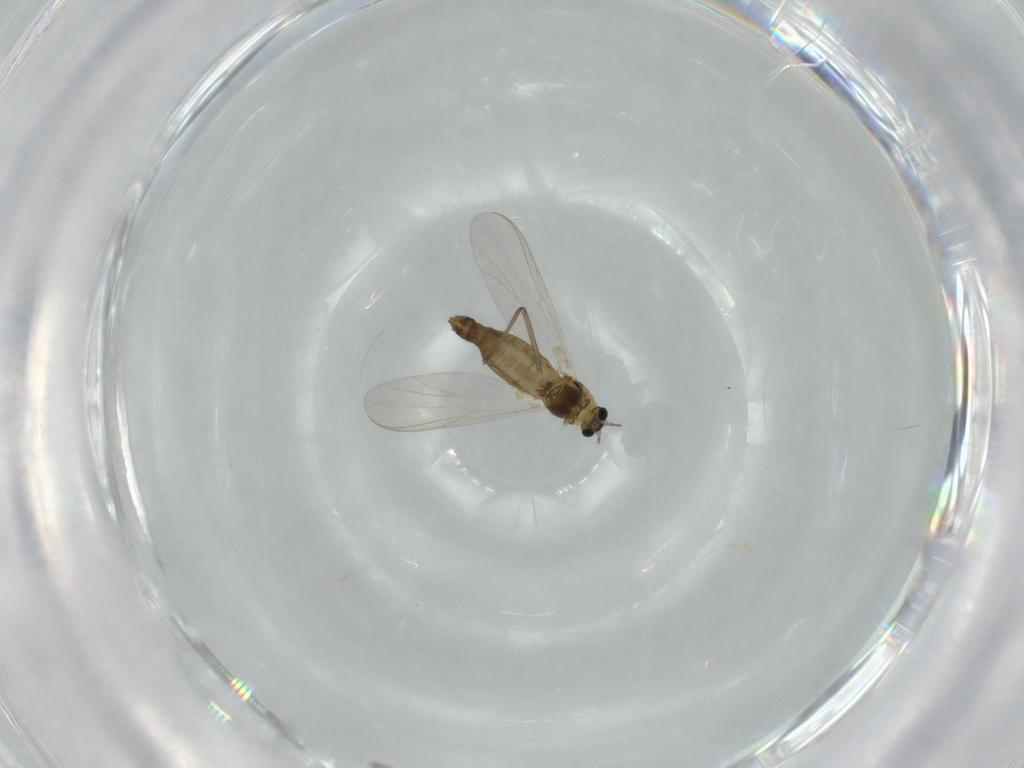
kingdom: Animalia
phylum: Arthropoda
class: Insecta
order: Diptera
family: Chironomidae
